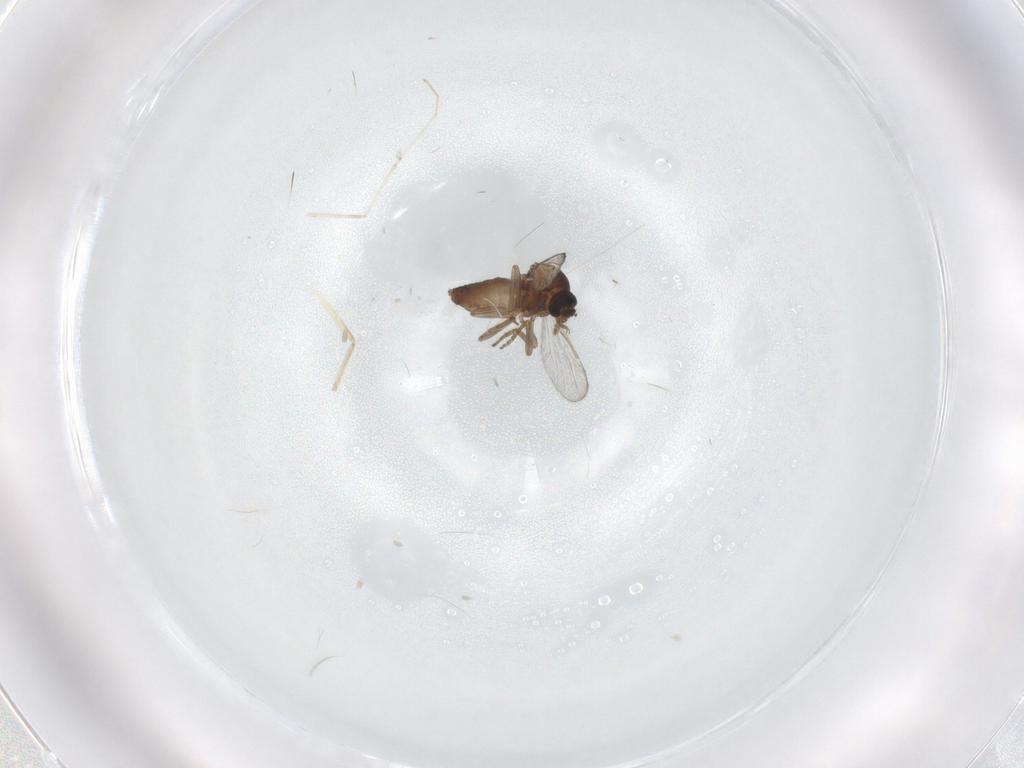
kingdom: Animalia
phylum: Arthropoda
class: Insecta
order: Diptera
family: Ceratopogonidae
